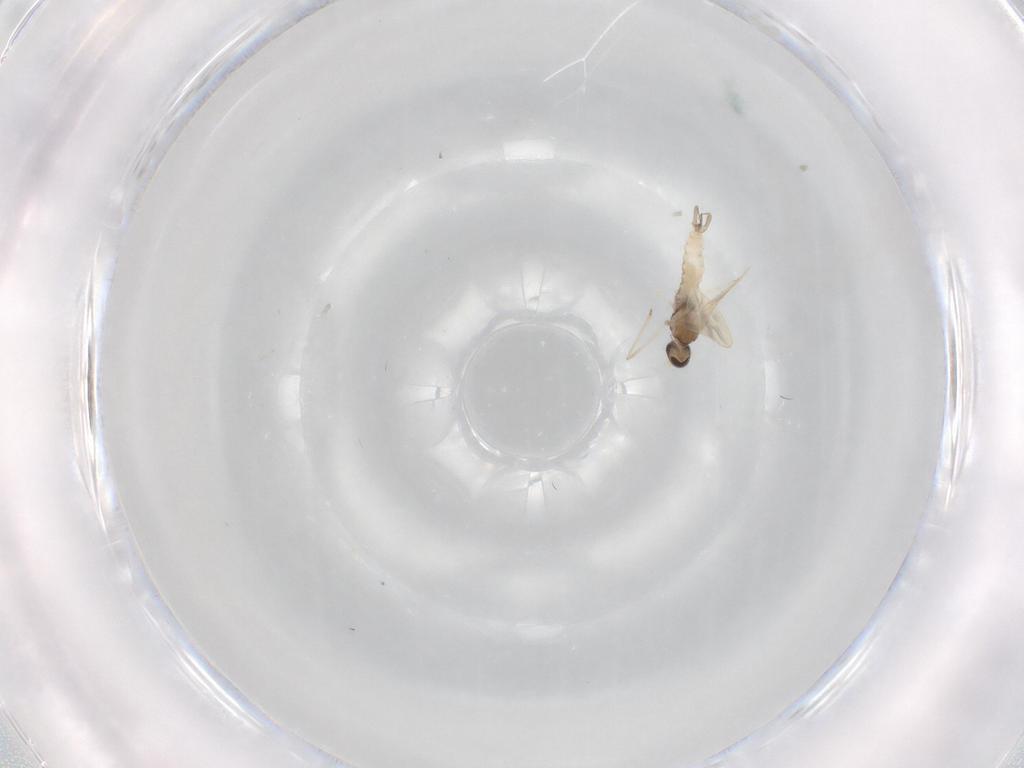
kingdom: Animalia
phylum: Arthropoda
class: Insecta
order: Diptera
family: Cecidomyiidae
